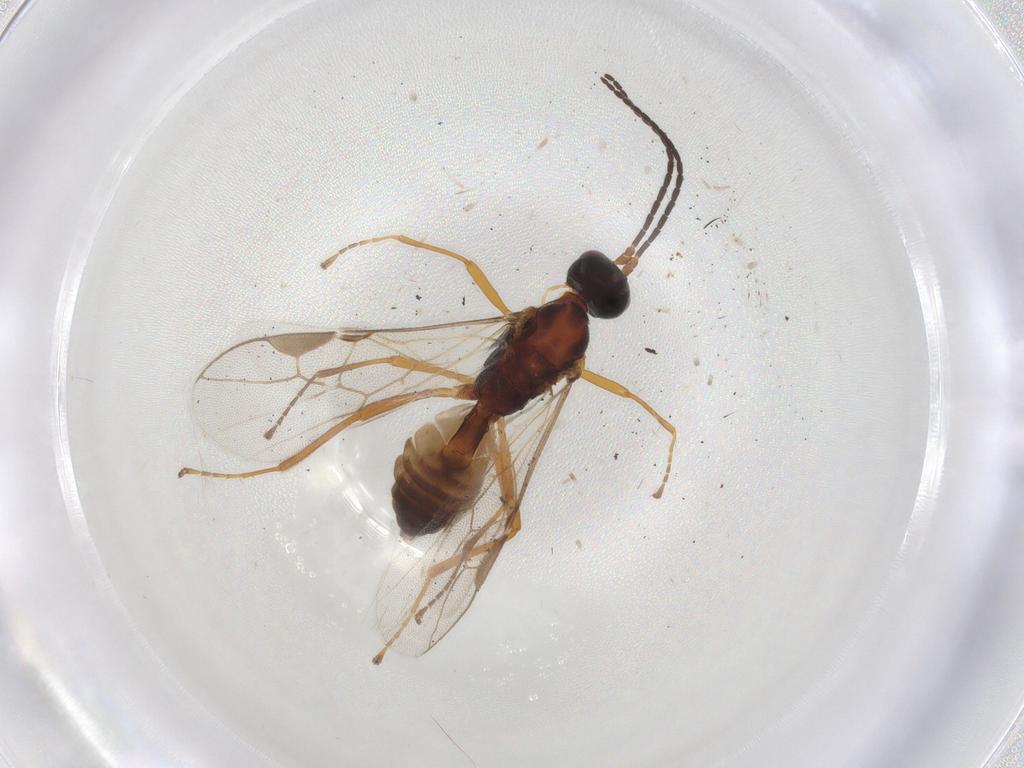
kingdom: Animalia
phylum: Arthropoda
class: Insecta
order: Hymenoptera
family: Braconidae
